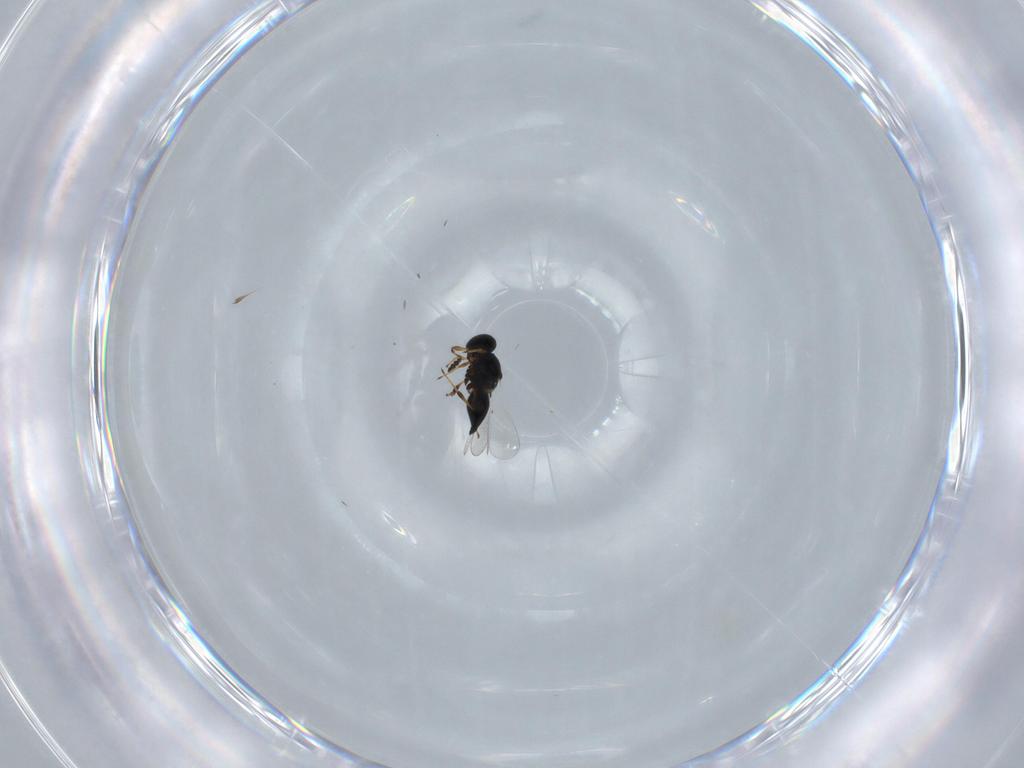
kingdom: Animalia
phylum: Arthropoda
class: Insecta
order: Hymenoptera
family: Platygastridae
